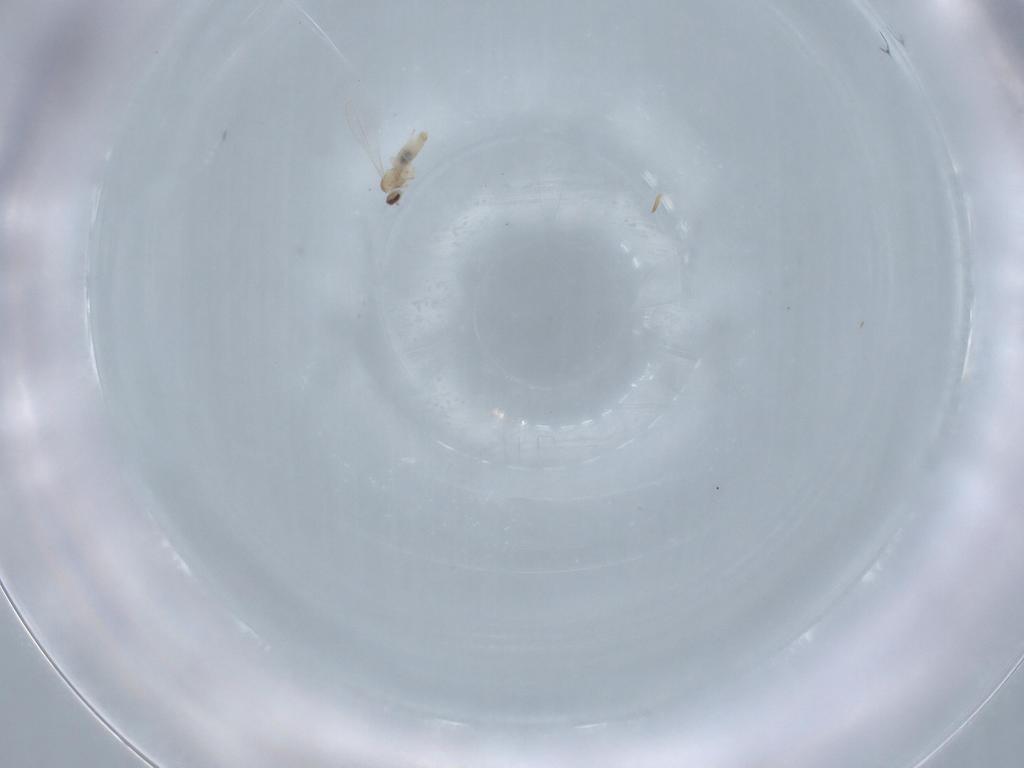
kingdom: Animalia
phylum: Arthropoda
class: Insecta
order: Diptera
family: Cecidomyiidae
